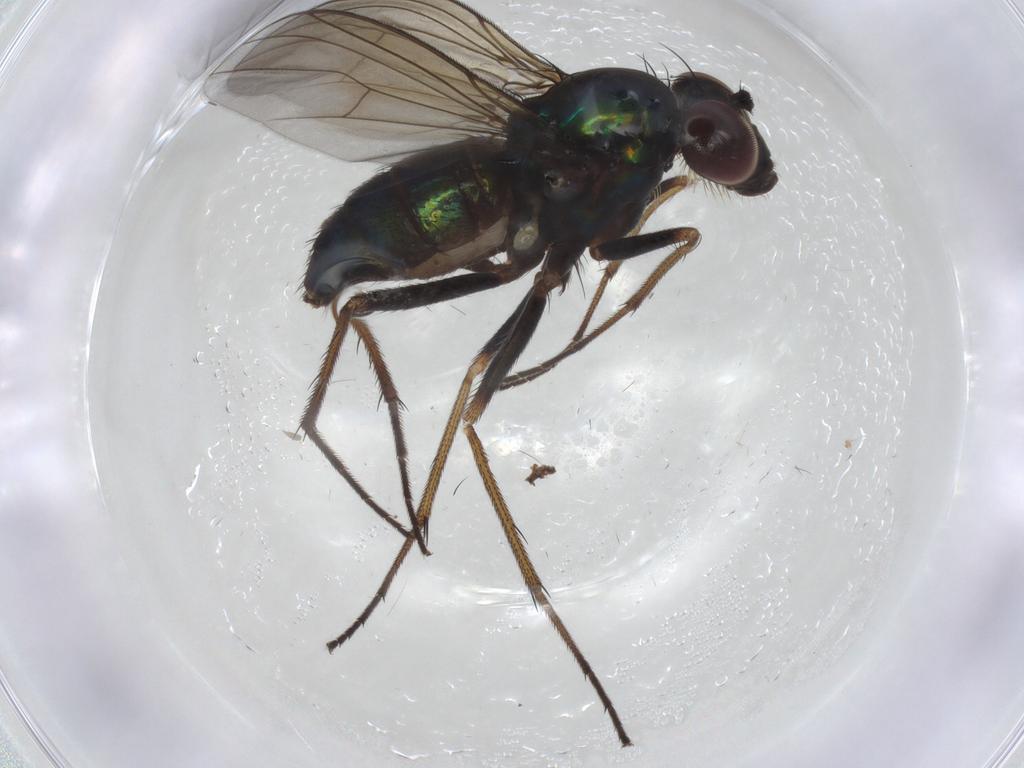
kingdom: Animalia
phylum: Arthropoda
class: Insecta
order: Diptera
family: Dolichopodidae
